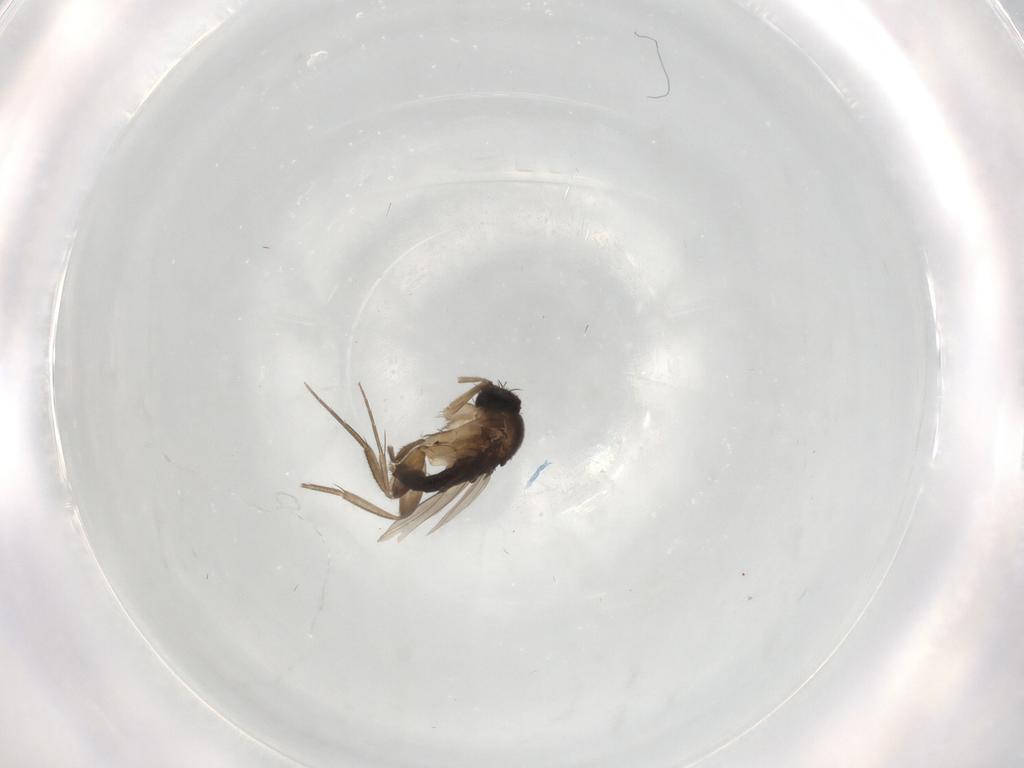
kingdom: Animalia
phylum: Arthropoda
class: Insecta
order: Diptera
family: Ceratopogonidae
